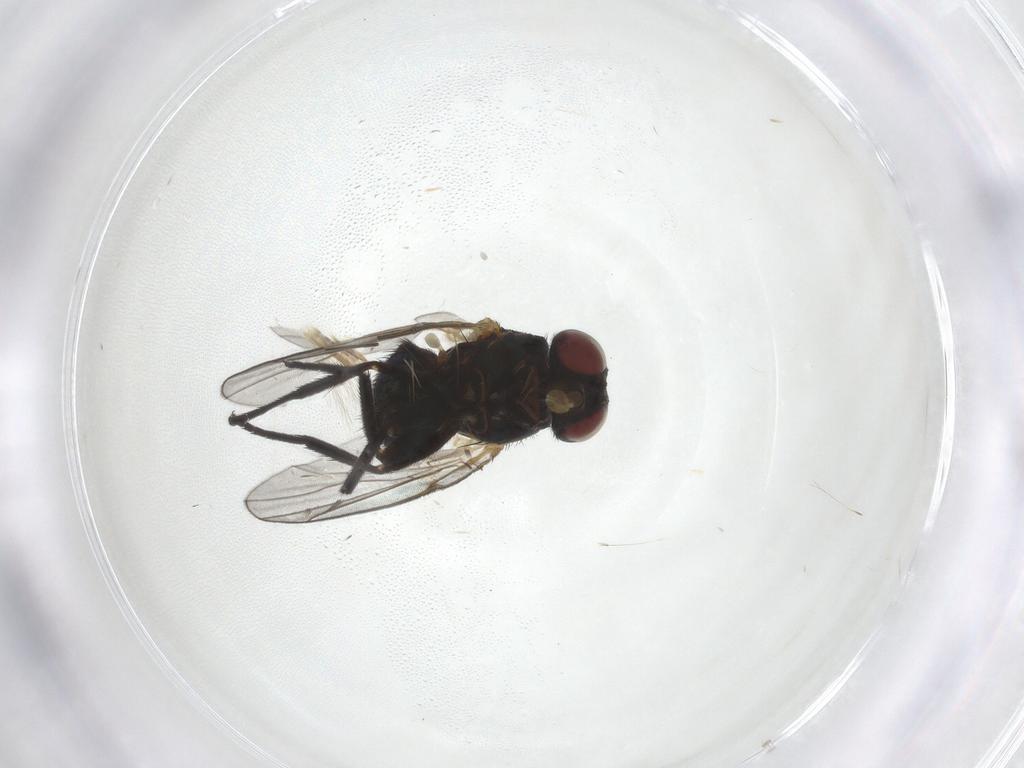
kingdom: Animalia
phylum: Arthropoda
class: Insecta
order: Diptera
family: Agromyzidae
